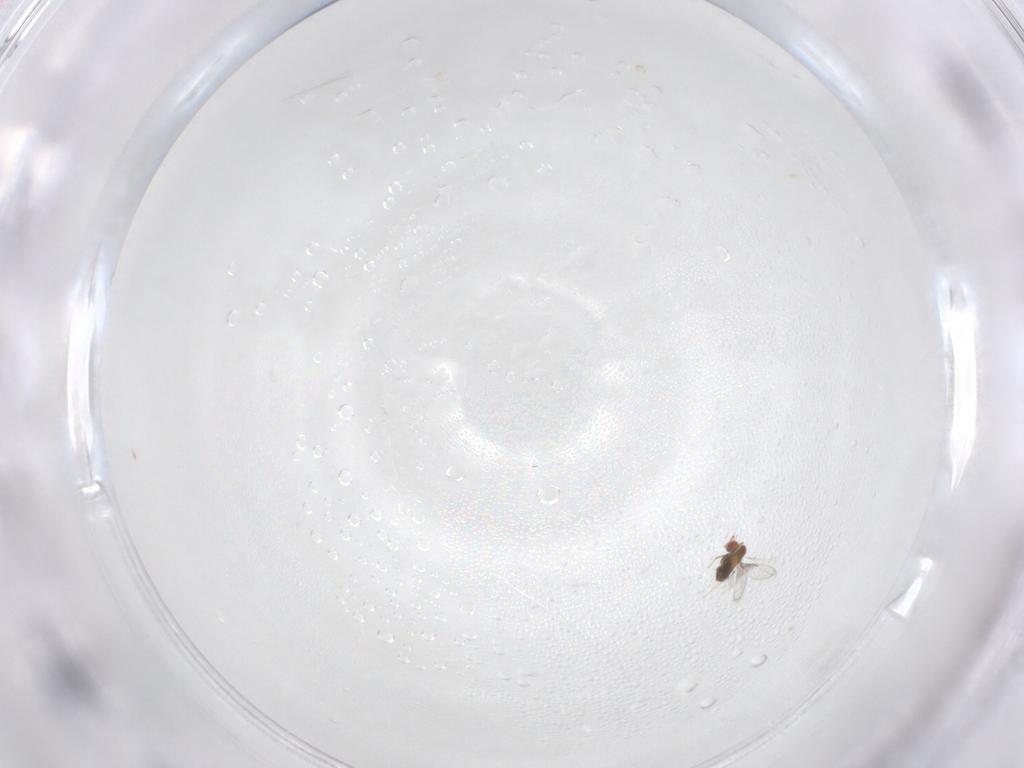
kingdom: Animalia
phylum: Arthropoda
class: Insecta
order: Hymenoptera
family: Trichogrammatidae
